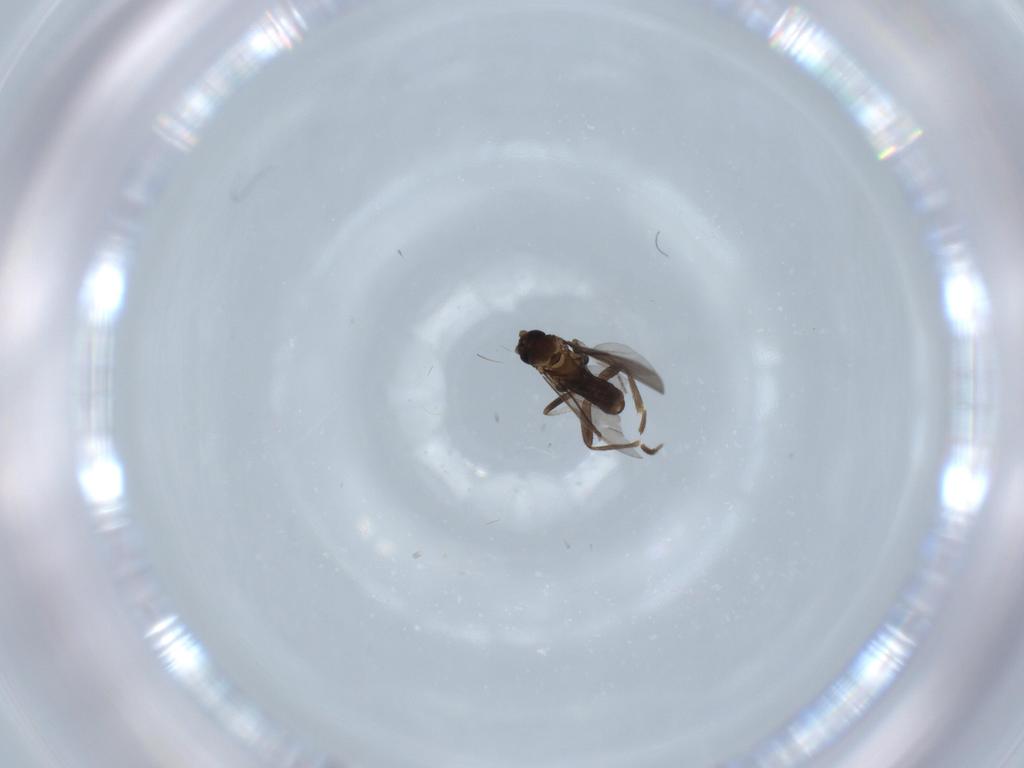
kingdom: Animalia
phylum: Arthropoda
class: Insecta
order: Diptera
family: Phoridae
